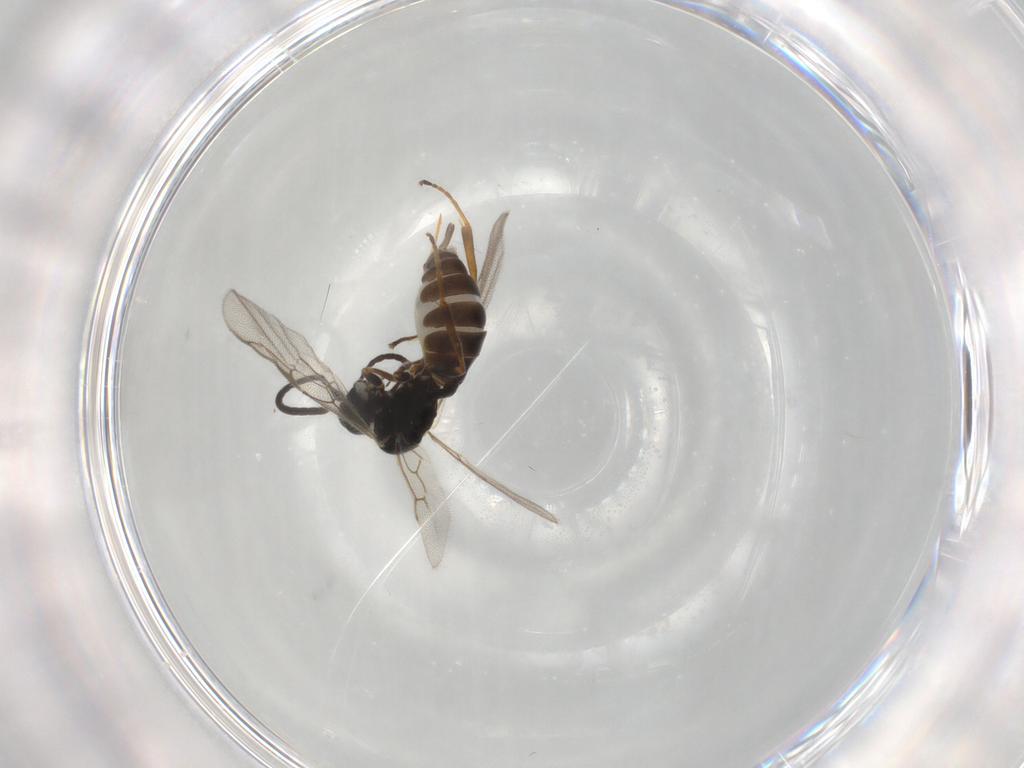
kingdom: Animalia
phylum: Arthropoda
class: Insecta
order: Hymenoptera
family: Ichneumonidae
